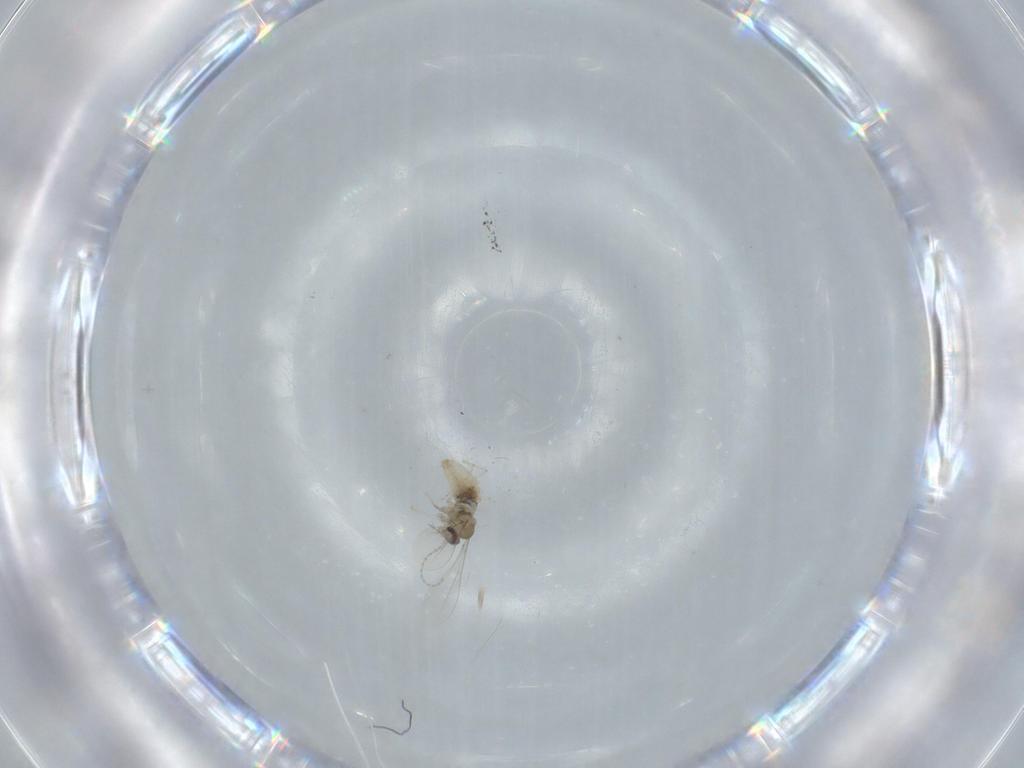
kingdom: Animalia
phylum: Arthropoda
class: Insecta
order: Diptera
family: Cecidomyiidae
